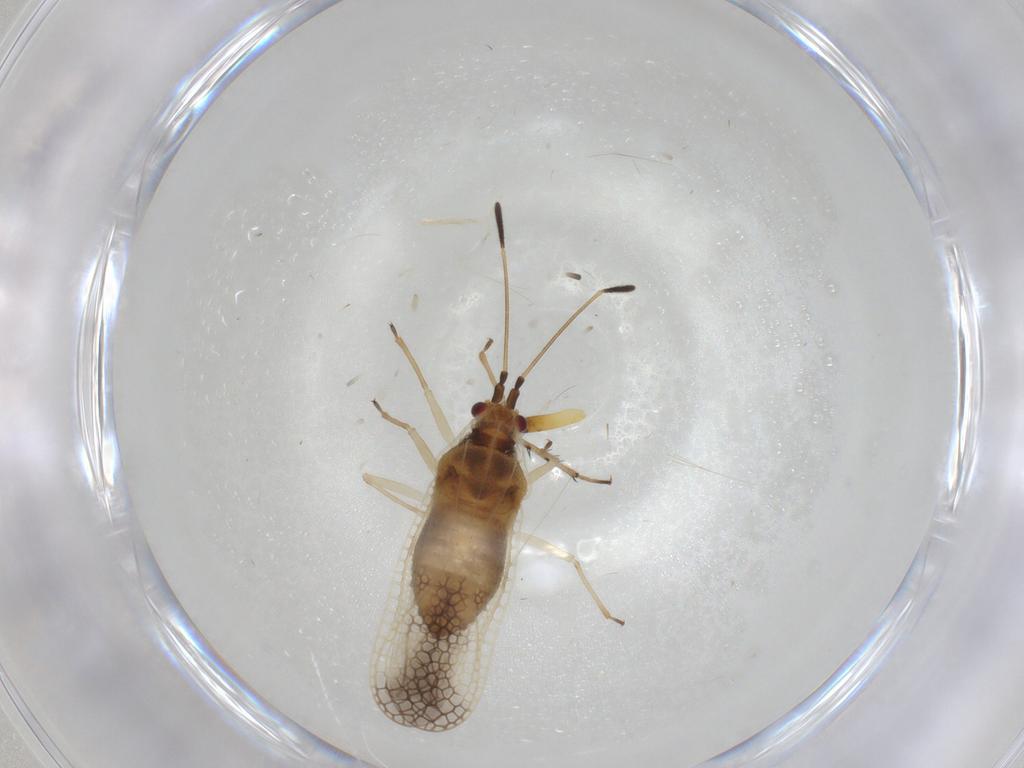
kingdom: Animalia
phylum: Arthropoda
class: Insecta
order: Hemiptera
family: Tingidae
